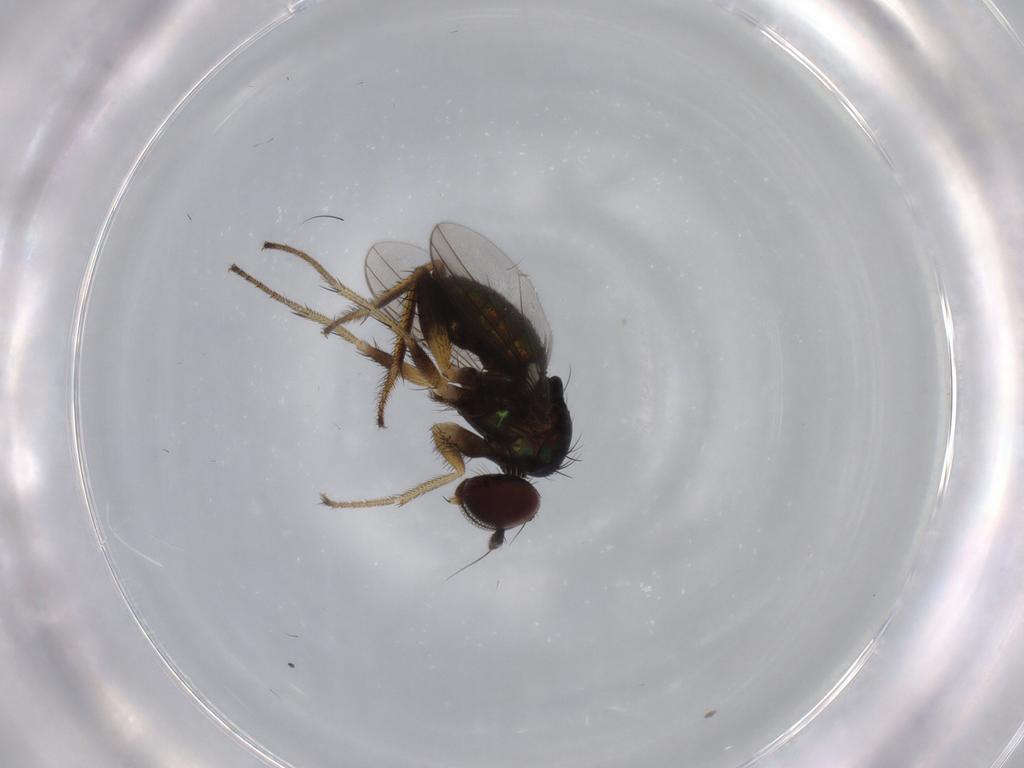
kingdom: Animalia
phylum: Arthropoda
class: Insecta
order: Diptera
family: Dolichopodidae
